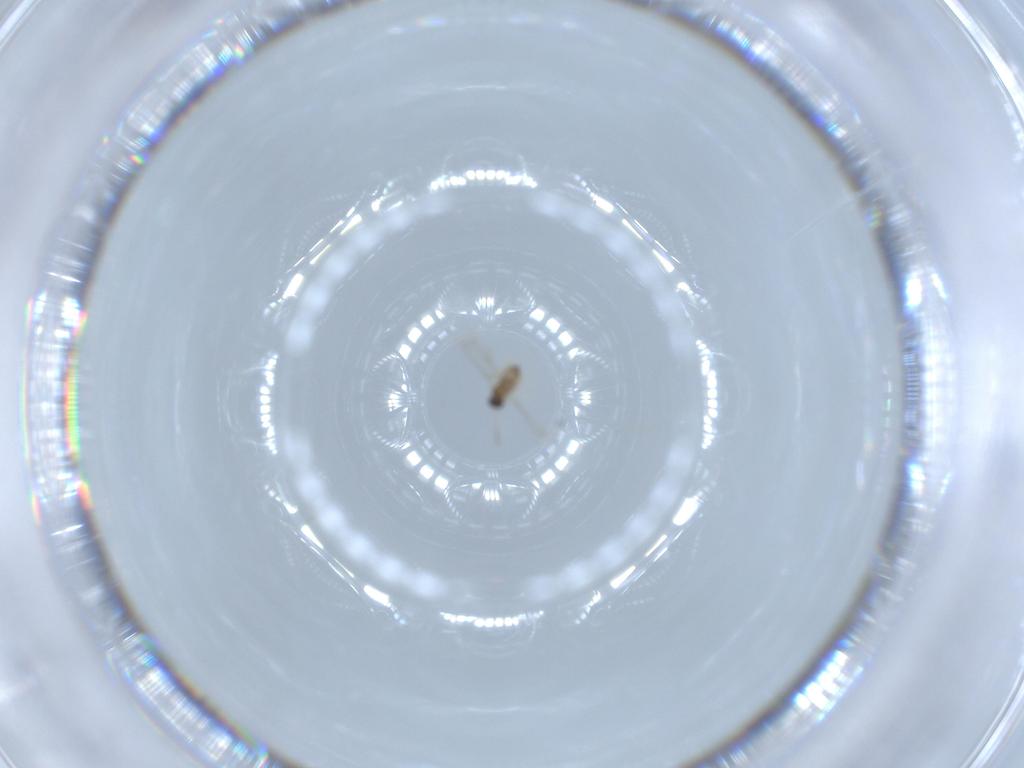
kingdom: Animalia
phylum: Arthropoda
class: Insecta
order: Hymenoptera
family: Mymaridae
